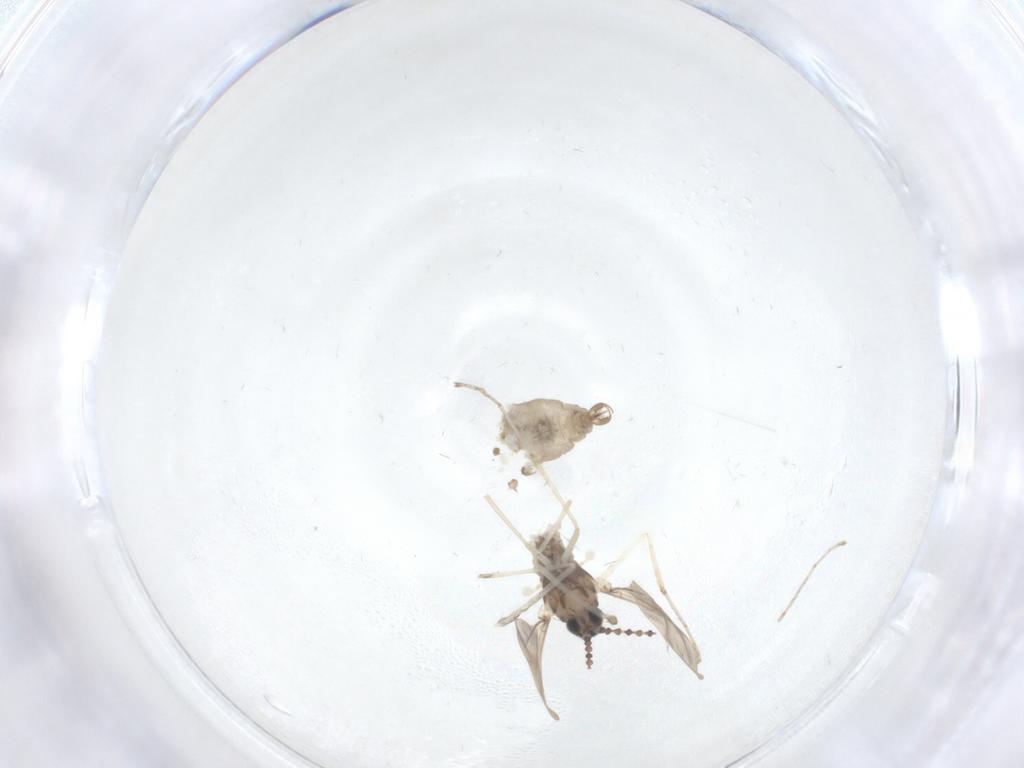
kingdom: Animalia
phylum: Arthropoda
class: Insecta
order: Diptera
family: Cecidomyiidae
